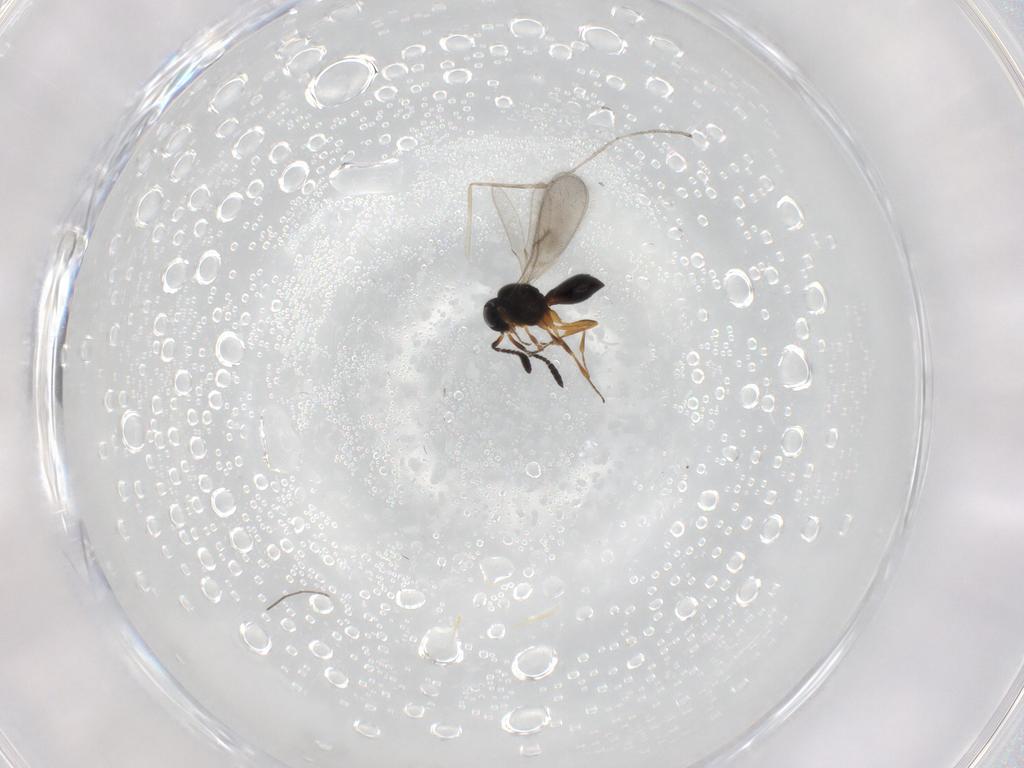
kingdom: Animalia
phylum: Arthropoda
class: Insecta
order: Hymenoptera
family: Scelionidae
